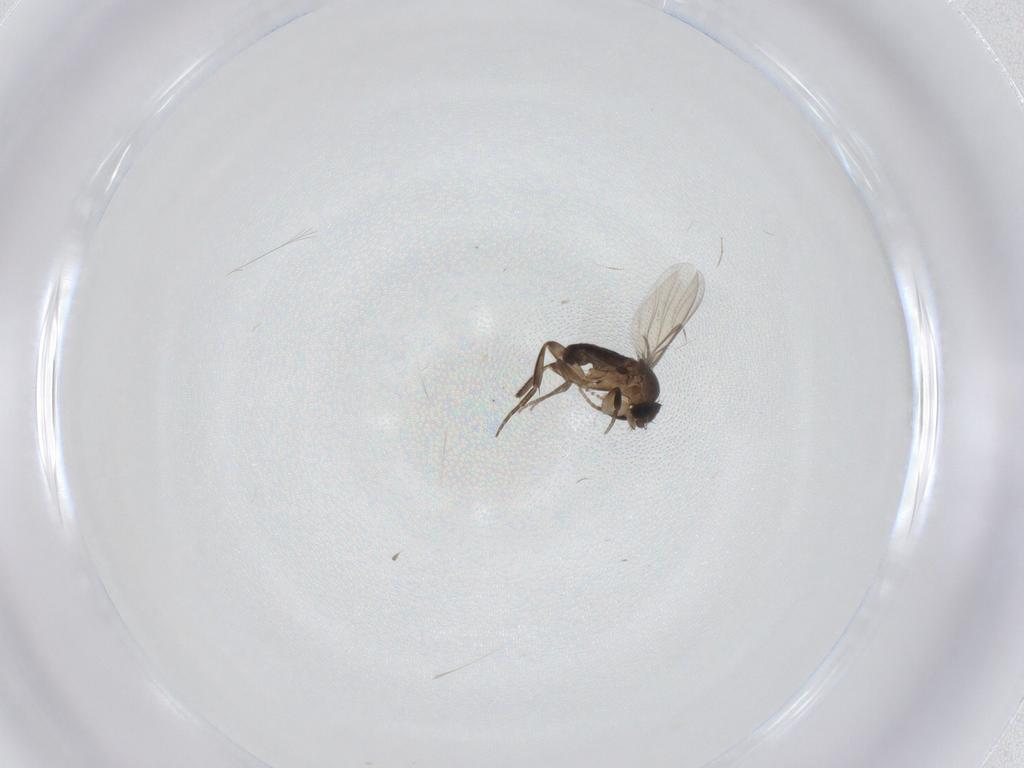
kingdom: Animalia
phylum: Arthropoda
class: Insecta
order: Diptera
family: Phoridae
